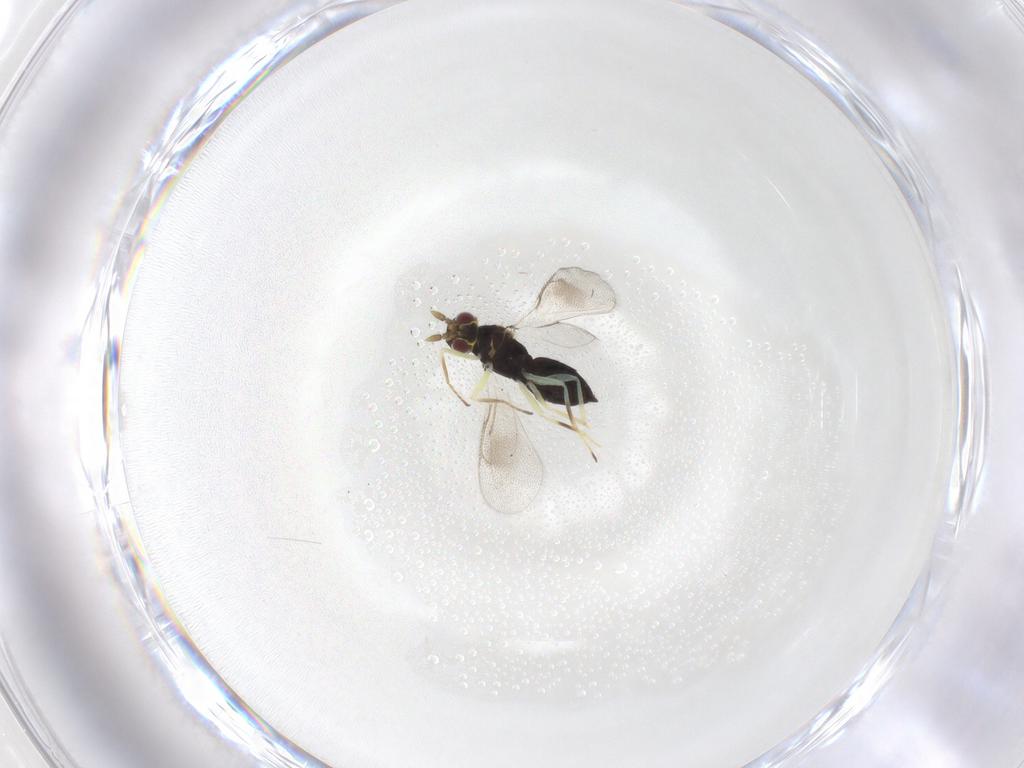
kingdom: Animalia
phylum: Arthropoda
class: Insecta
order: Hymenoptera
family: Eulophidae
